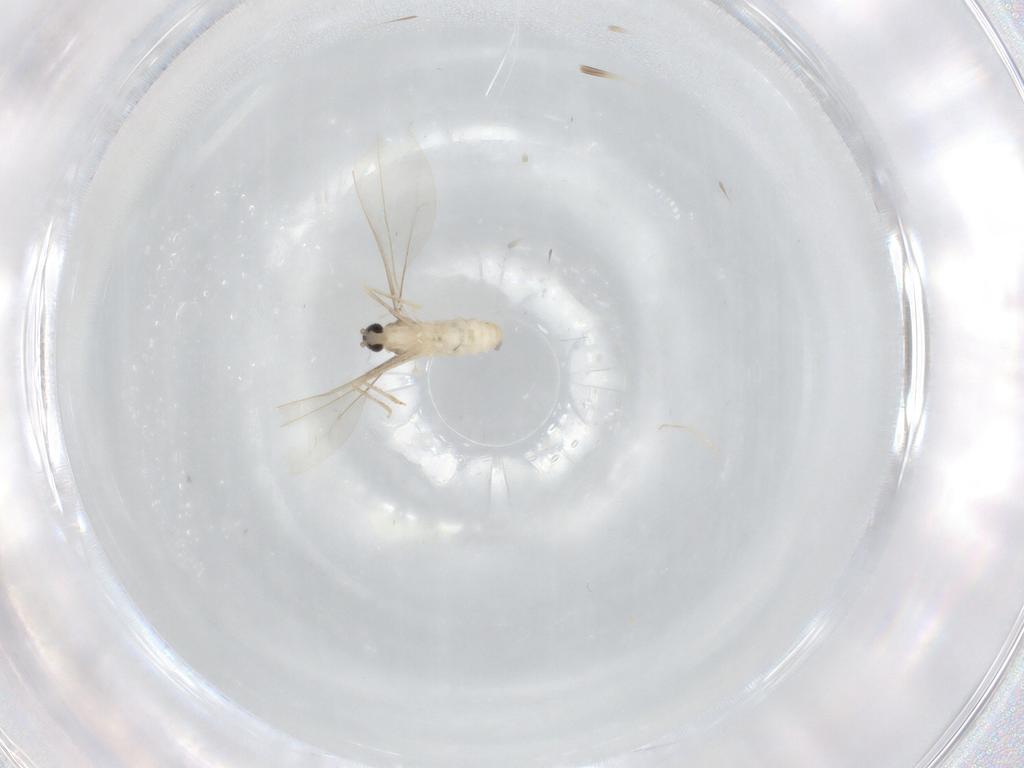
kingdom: Animalia
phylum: Arthropoda
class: Insecta
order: Diptera
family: Cecidomyiidae
